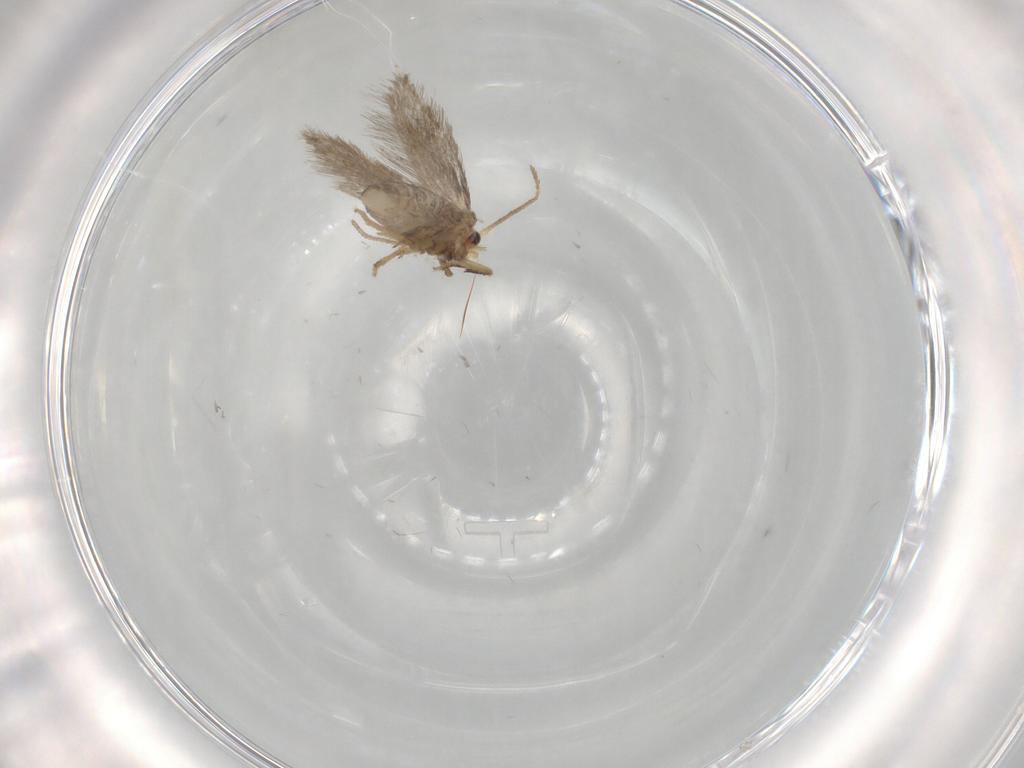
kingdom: Animalia
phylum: Arthropoda
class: Insecta
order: Lepidoptera
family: Nepticulidae
